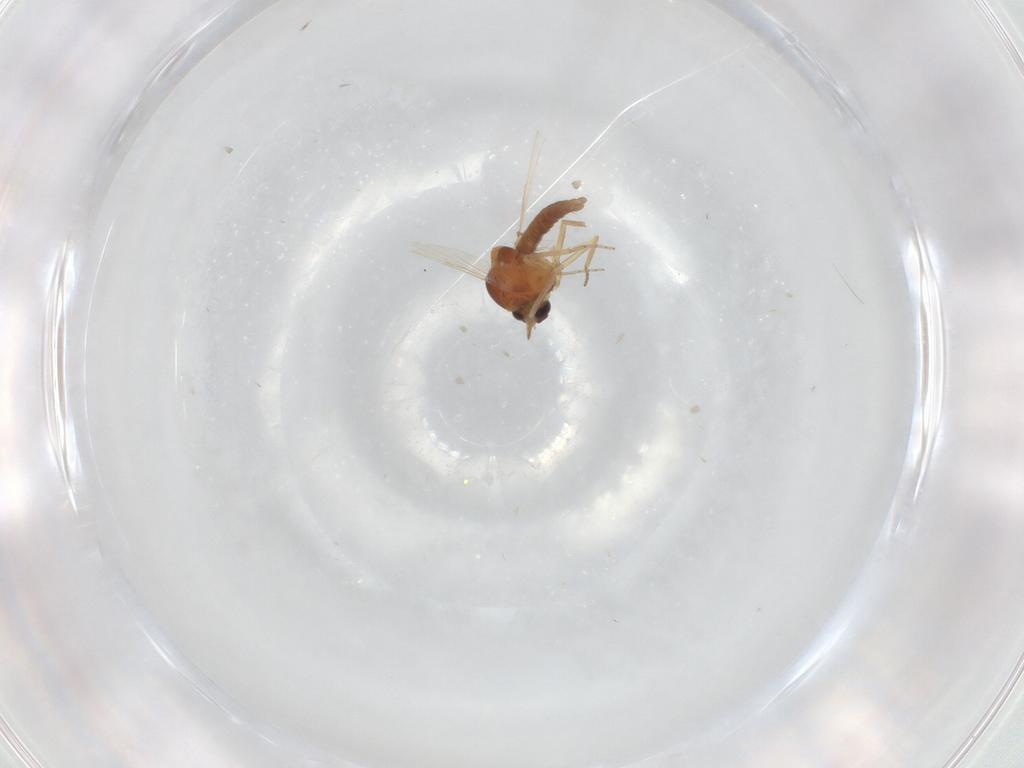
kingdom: Animalia
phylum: Arthropoda
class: Insecta
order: Diptera
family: Ceratopogonidae
